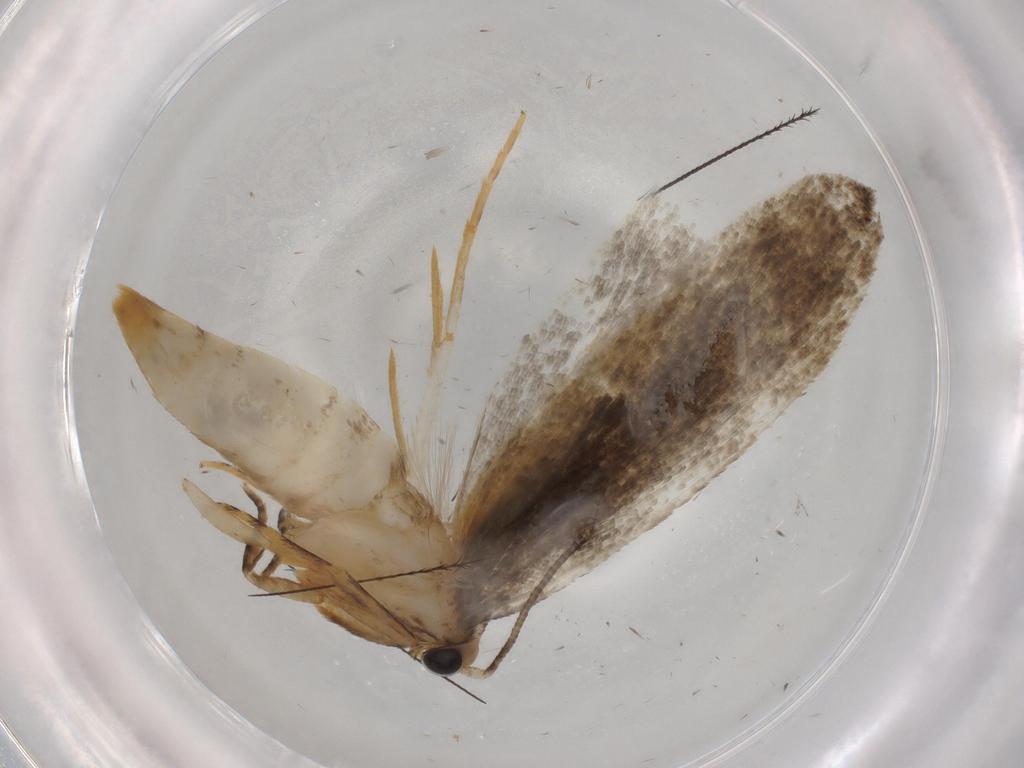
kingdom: Animalia
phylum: Arthropoda
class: Insecta
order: Lepidoptera
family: Tineidae
